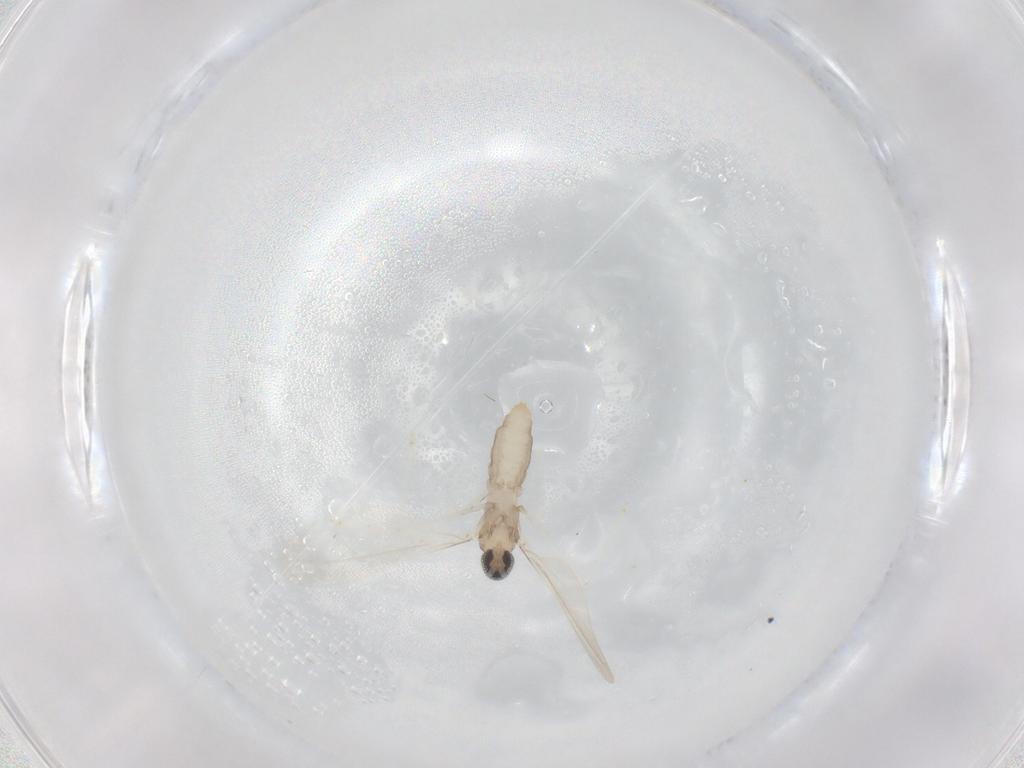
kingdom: Animalia
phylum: Arthropoda
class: Insecta
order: Diptera
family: Cecidomyiidae
